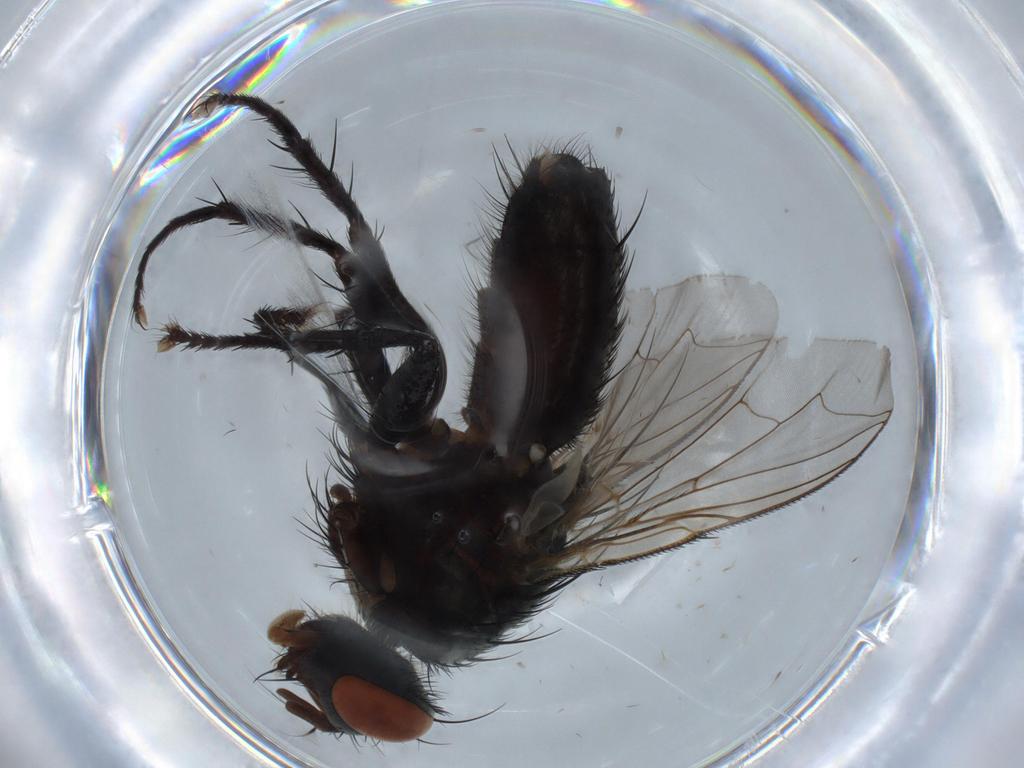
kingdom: Animalia
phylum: Arthropoda
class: Insecta
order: Diptera
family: Sarcophagidae
